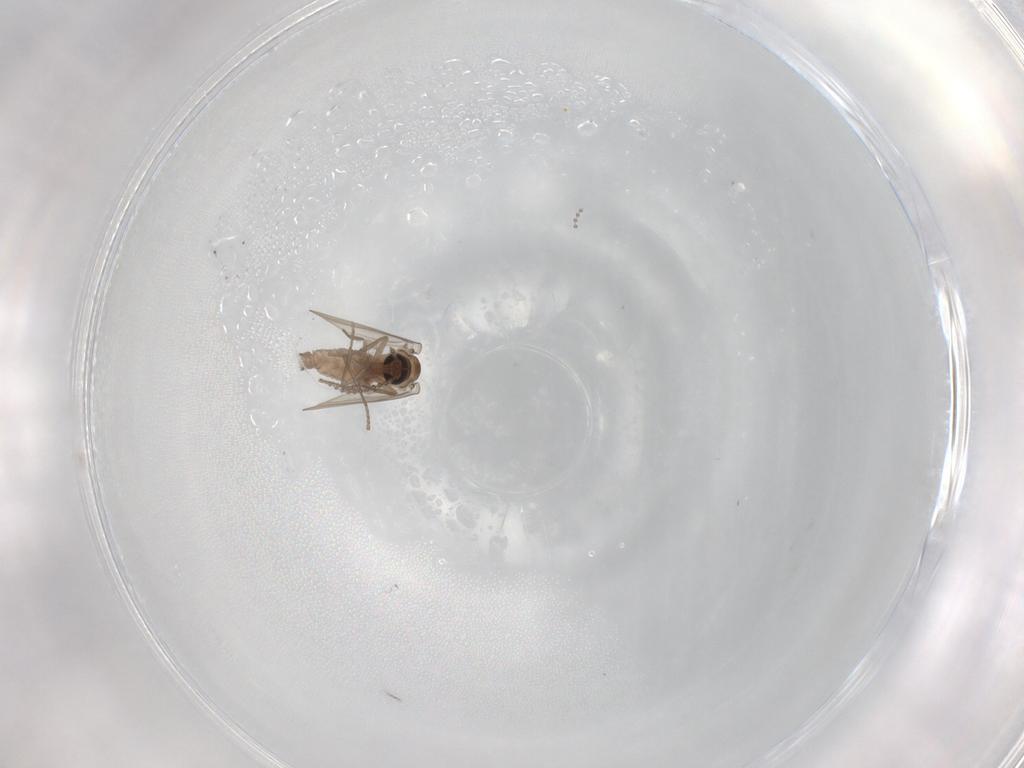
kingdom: Animalia
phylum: Arthropoda
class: Insecta
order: Diptera
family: Psychodidae
